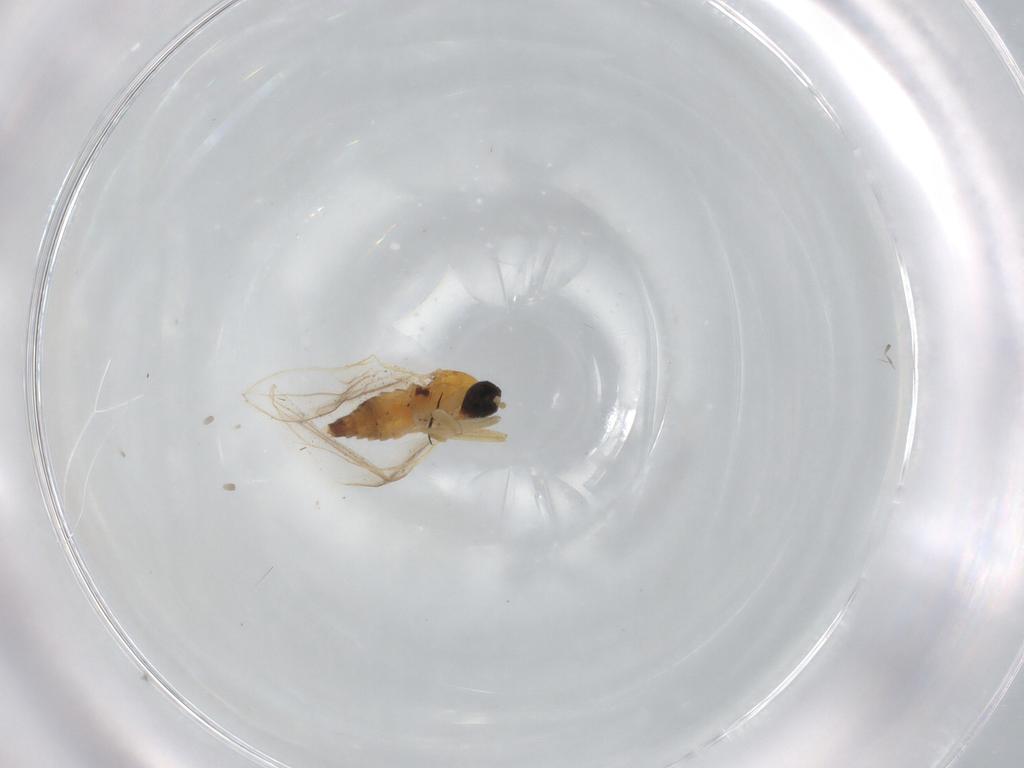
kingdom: Animalia
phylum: Arthropoda
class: Insecta
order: Diptera
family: Hybotidae
